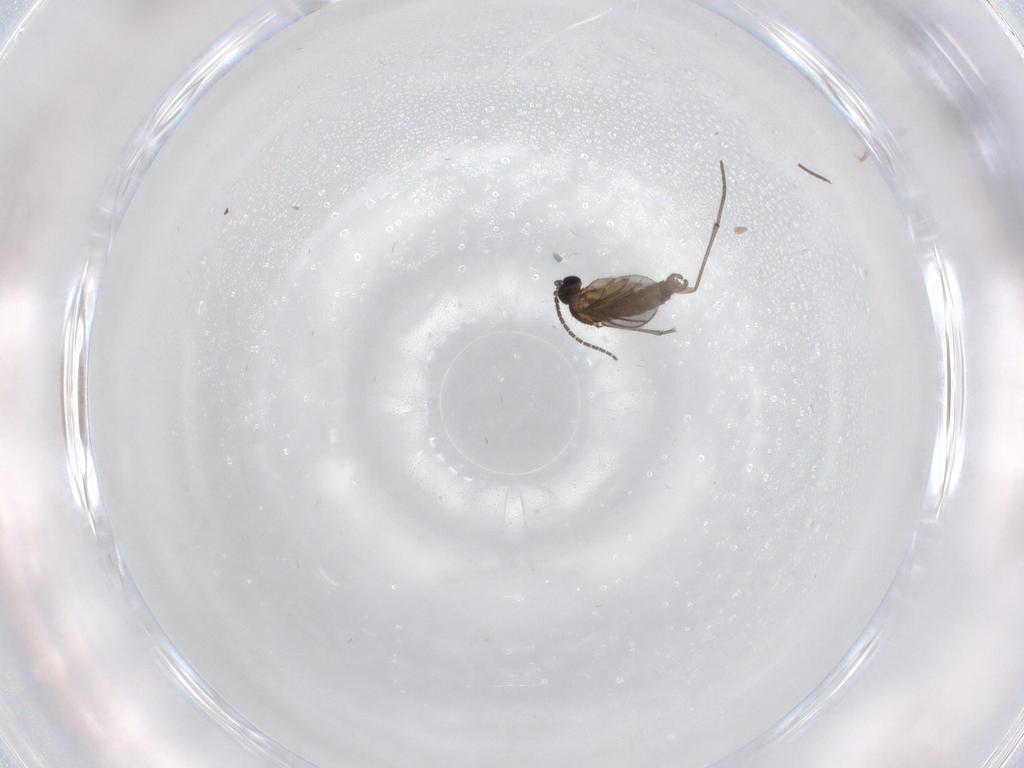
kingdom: Animalia
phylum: Arthropoda
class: Insecta
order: Diptera
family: Sciaridae
